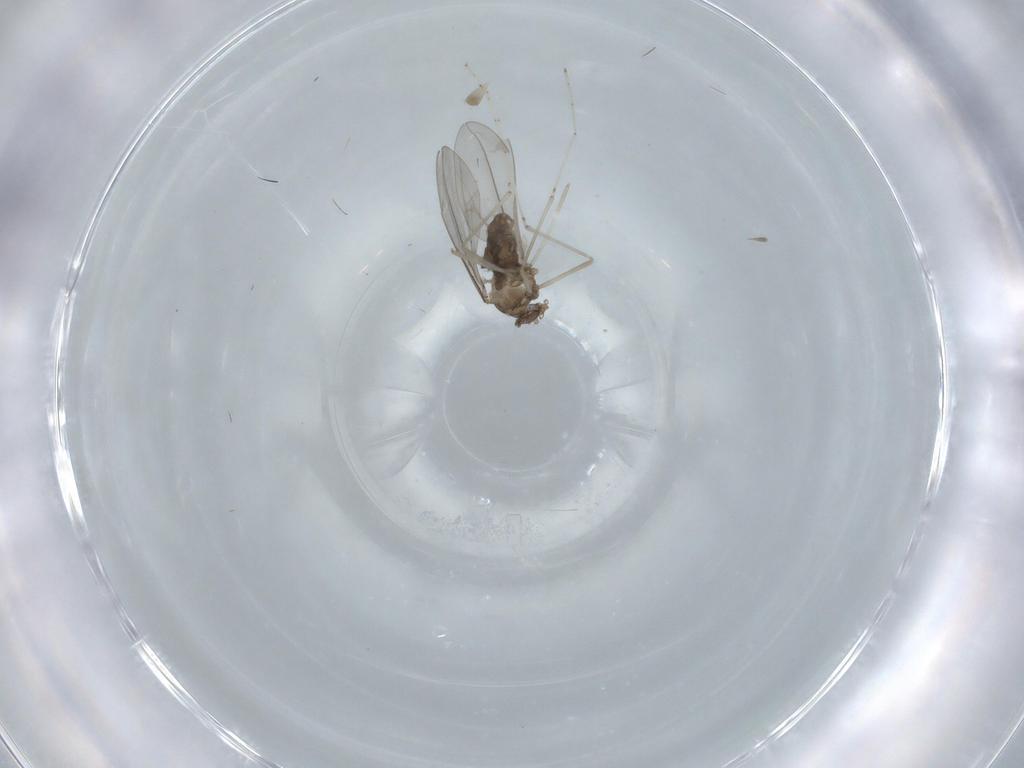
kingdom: Animalia
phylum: Arthropoda
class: Insecta
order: Diptera
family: Cecidomyiidae
